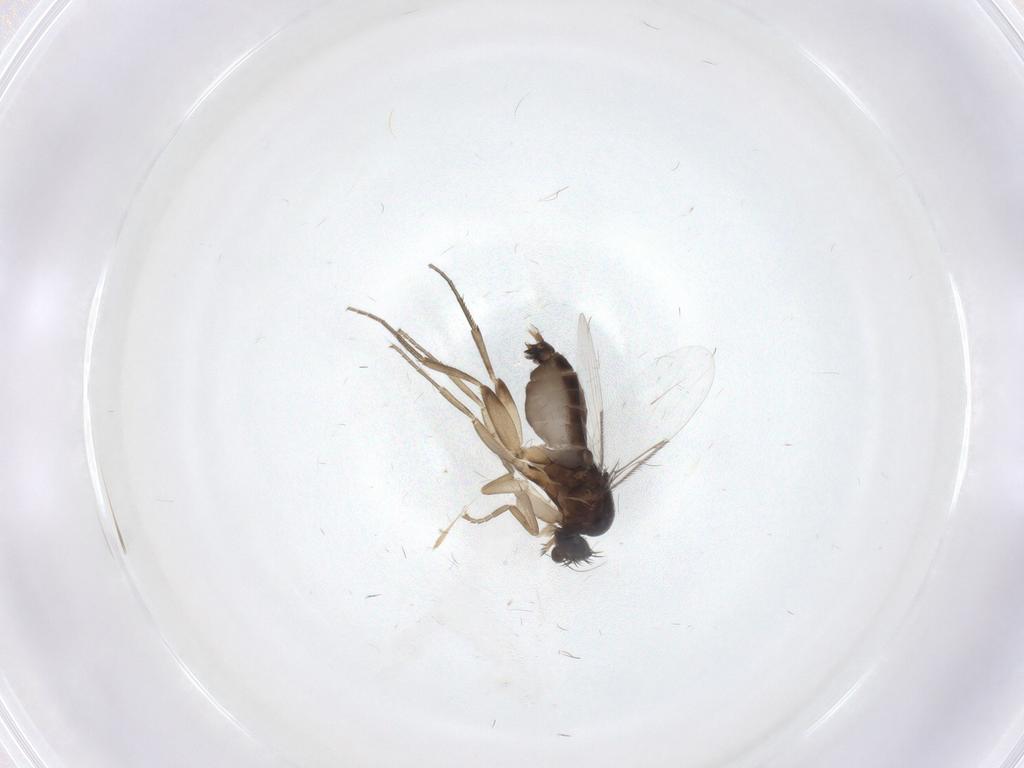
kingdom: Animalia
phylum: Arthropoda
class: Insecta
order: Diptera
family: Phoridae
